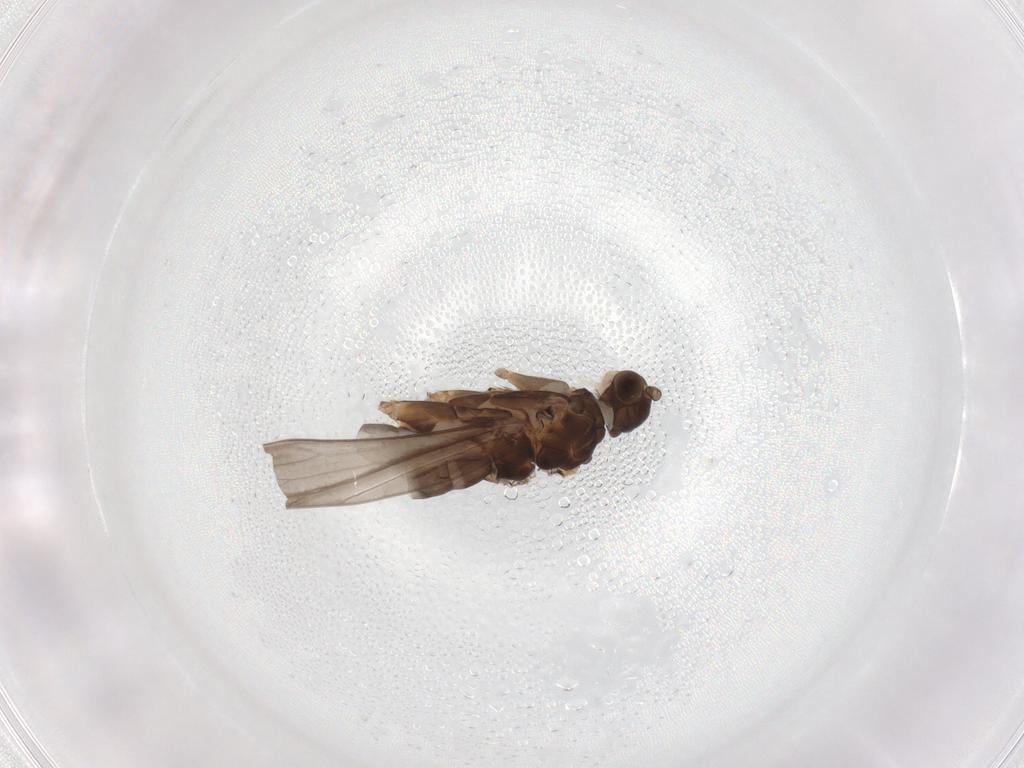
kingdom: Animalia
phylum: Arthropoda
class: Insecta
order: Trichoptera
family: Xiphocentronidae
